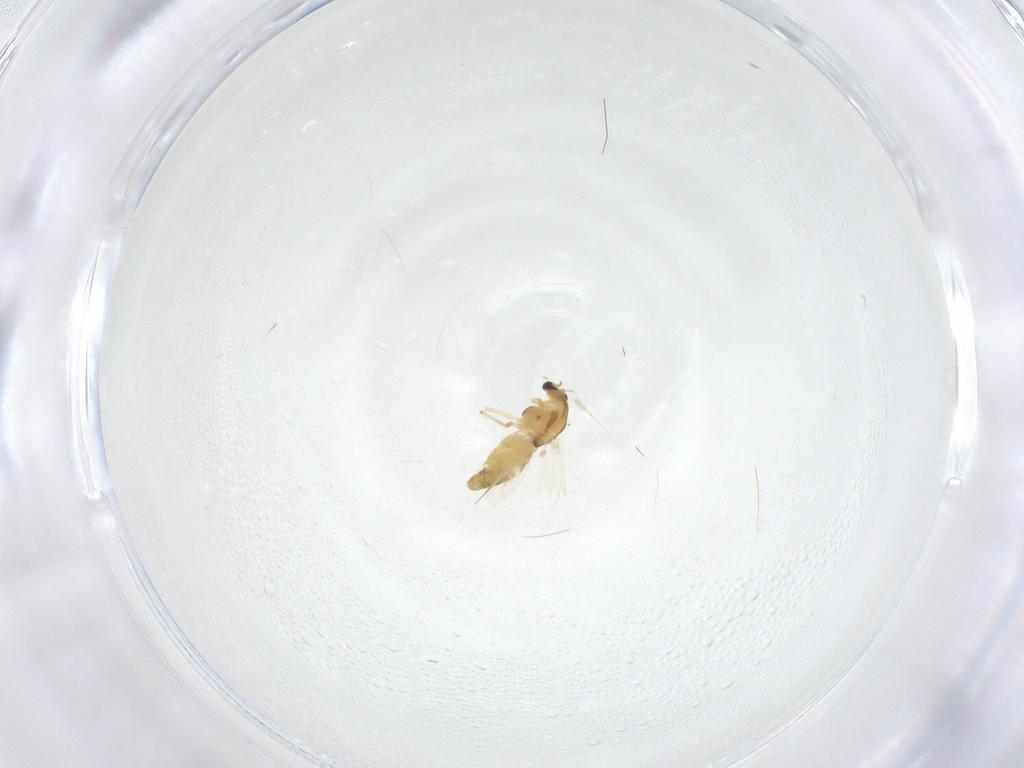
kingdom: Animalia
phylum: Arthropoda
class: Insecta
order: Diptera
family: Chironomidae
